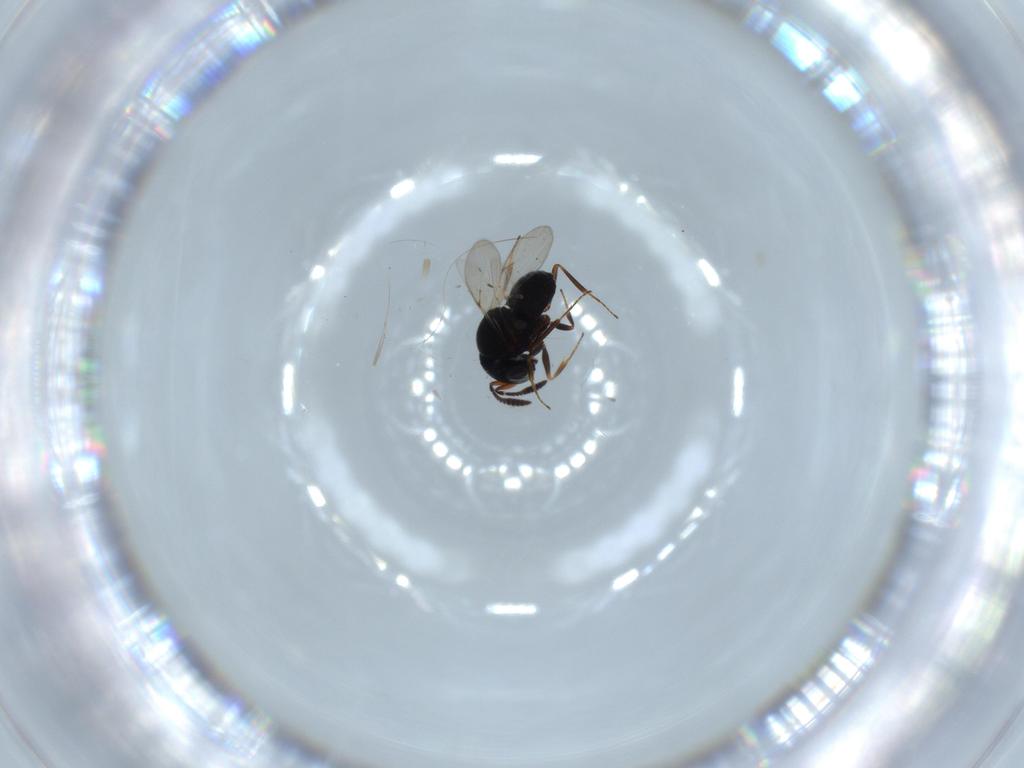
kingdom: Animalia
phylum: Arthropoda
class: Insecta
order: Hymenoptera
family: Scelionidae
